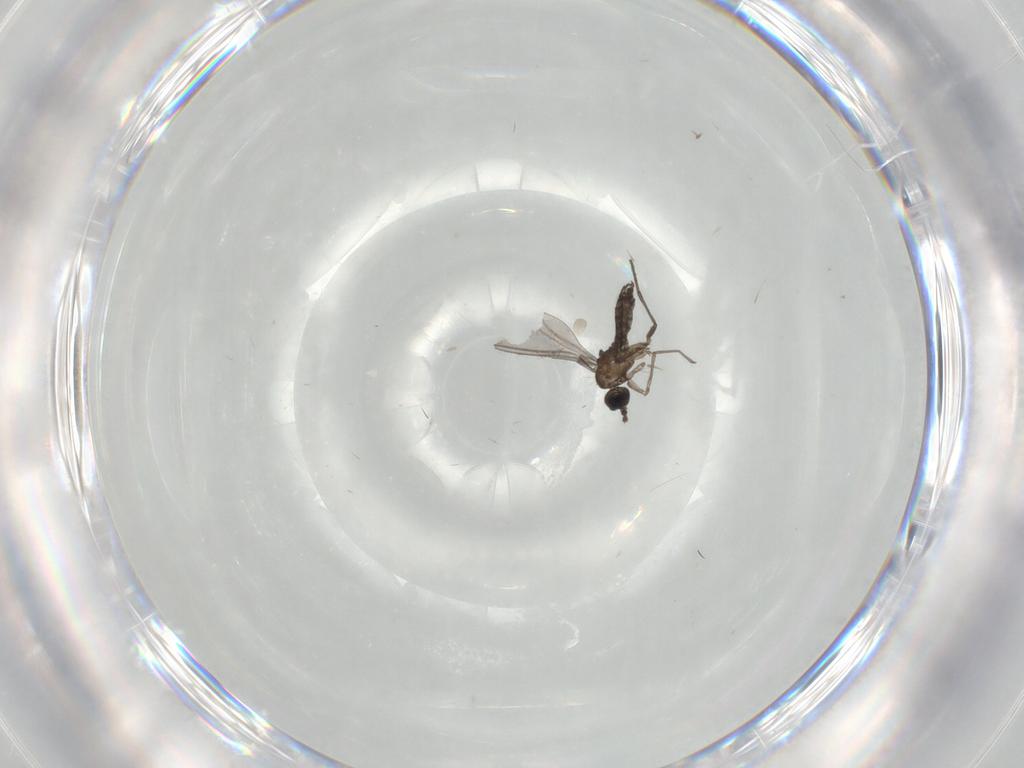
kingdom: Animalia
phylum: Arthropoda
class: Insecta
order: Diptera
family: Chironomidae
